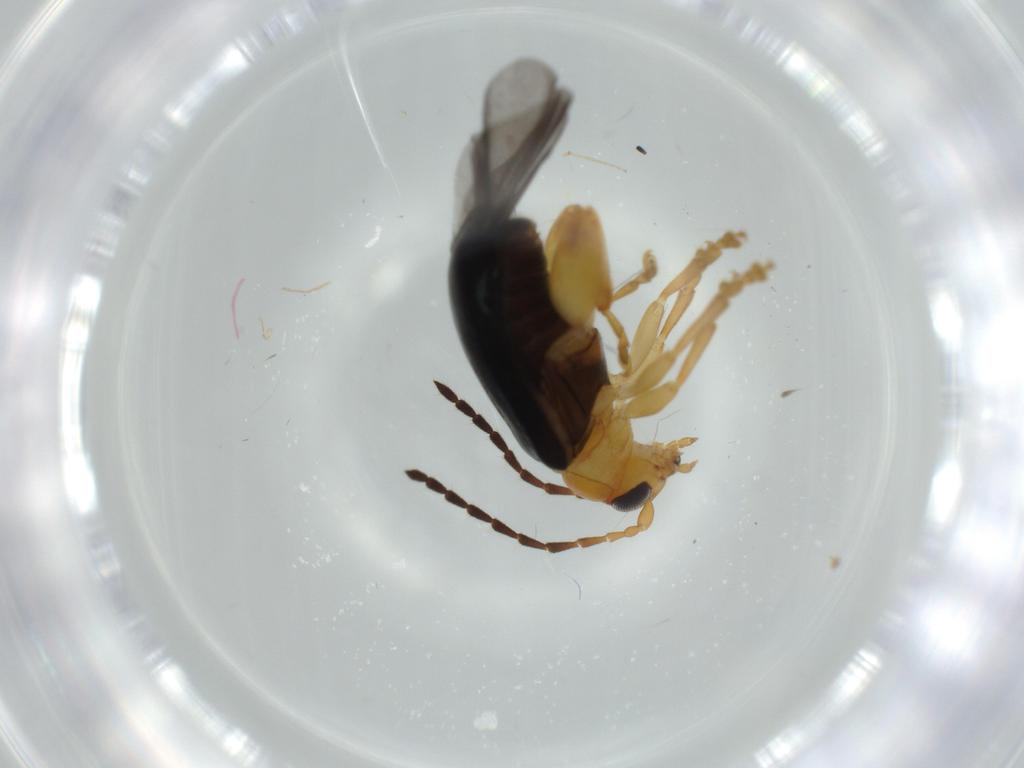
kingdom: Animalia
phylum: Arthropoda
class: Insecta
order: Coleoptera
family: Chrysomelidae
